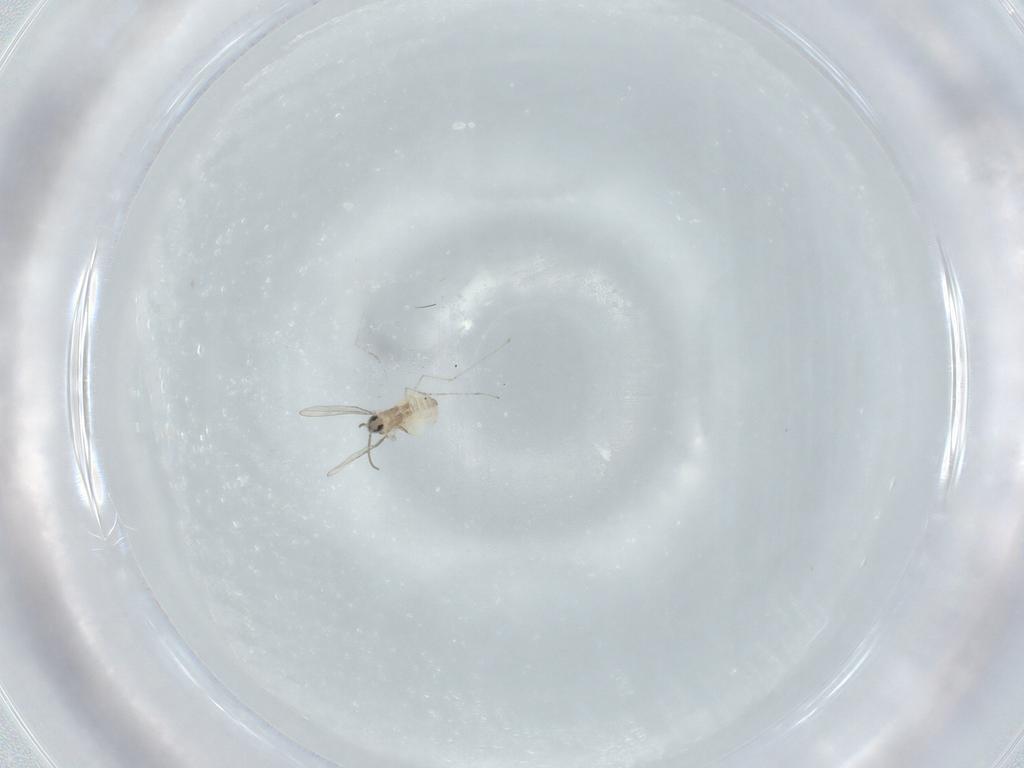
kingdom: Animalia
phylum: Arthropoda
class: Insecta
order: Diptera
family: Cecidomyiidae
